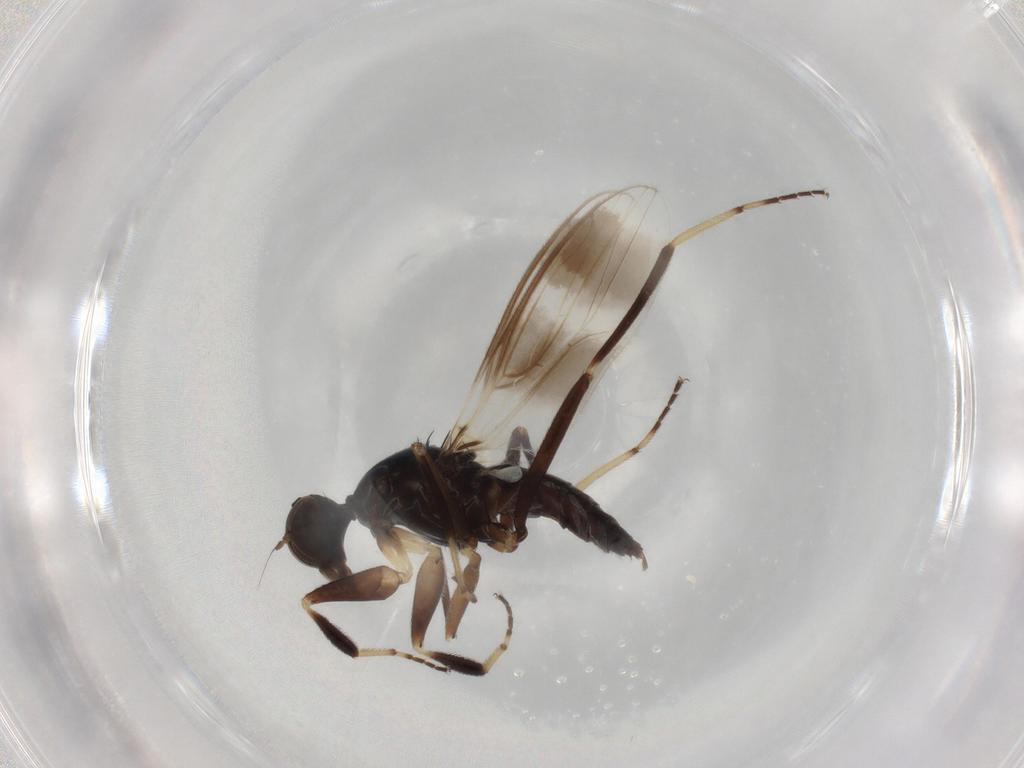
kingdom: Animalia
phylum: Arthropoda
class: Insecta
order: Diptera
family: Hybotidae
